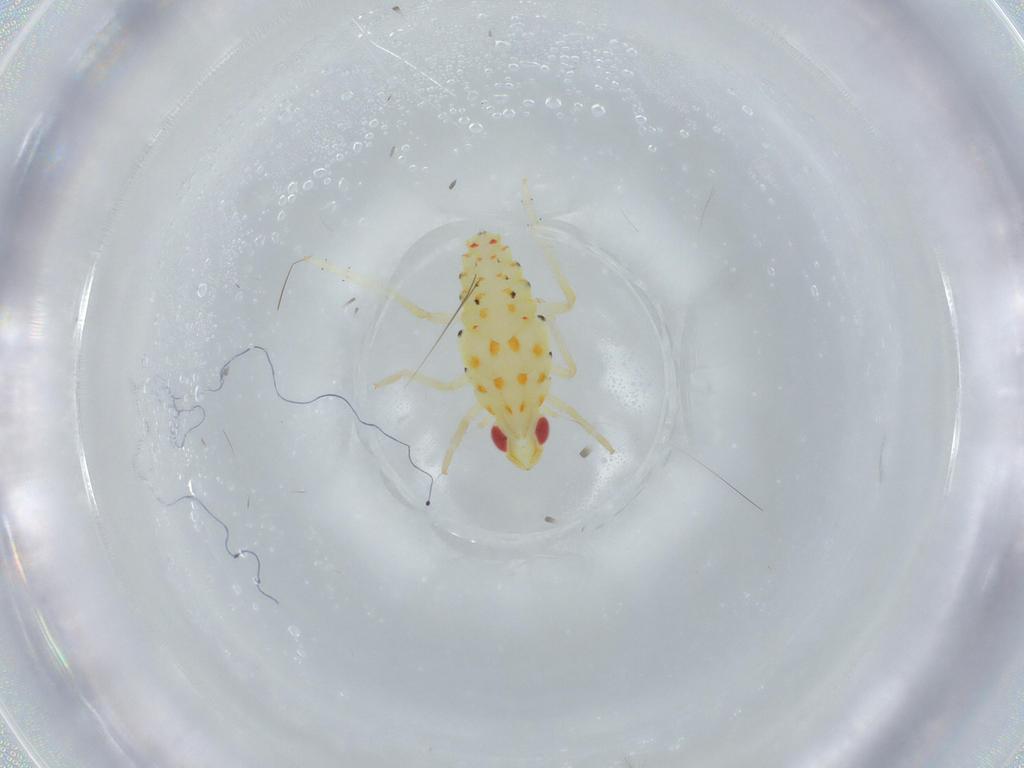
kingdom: Animalia
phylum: Arthropoda
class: Insecta
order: Hemiptera
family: Tropiduchidae
